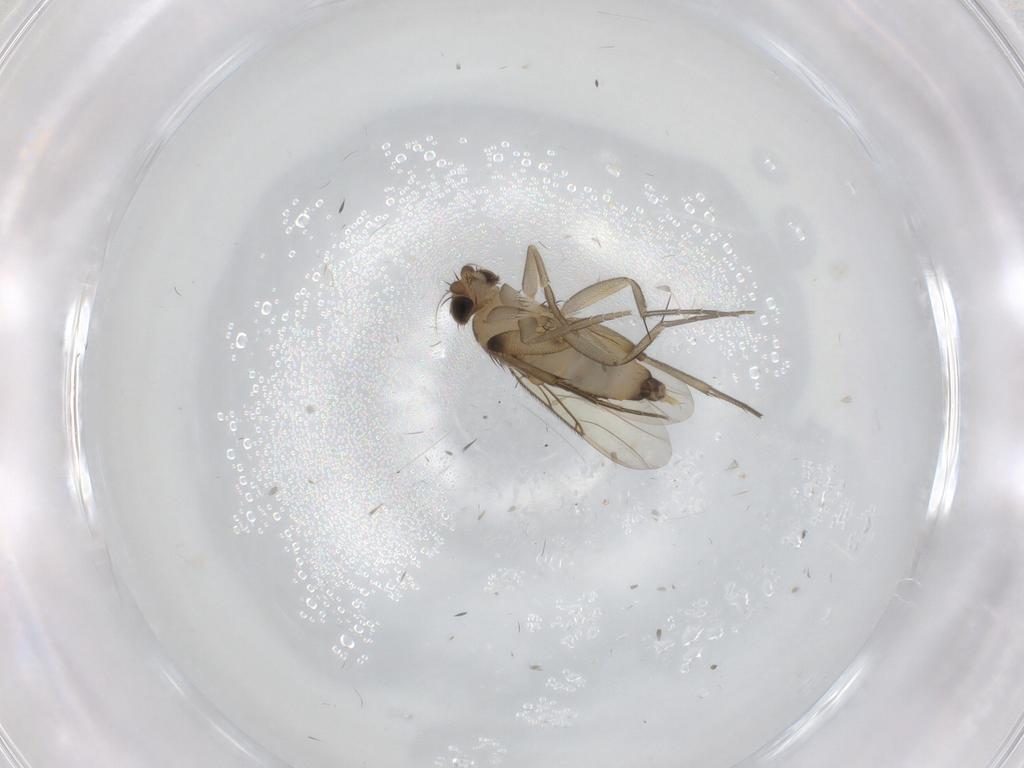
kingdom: Animalia
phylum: Arthropoda
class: Insecta
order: Diptera
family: Phoridae
